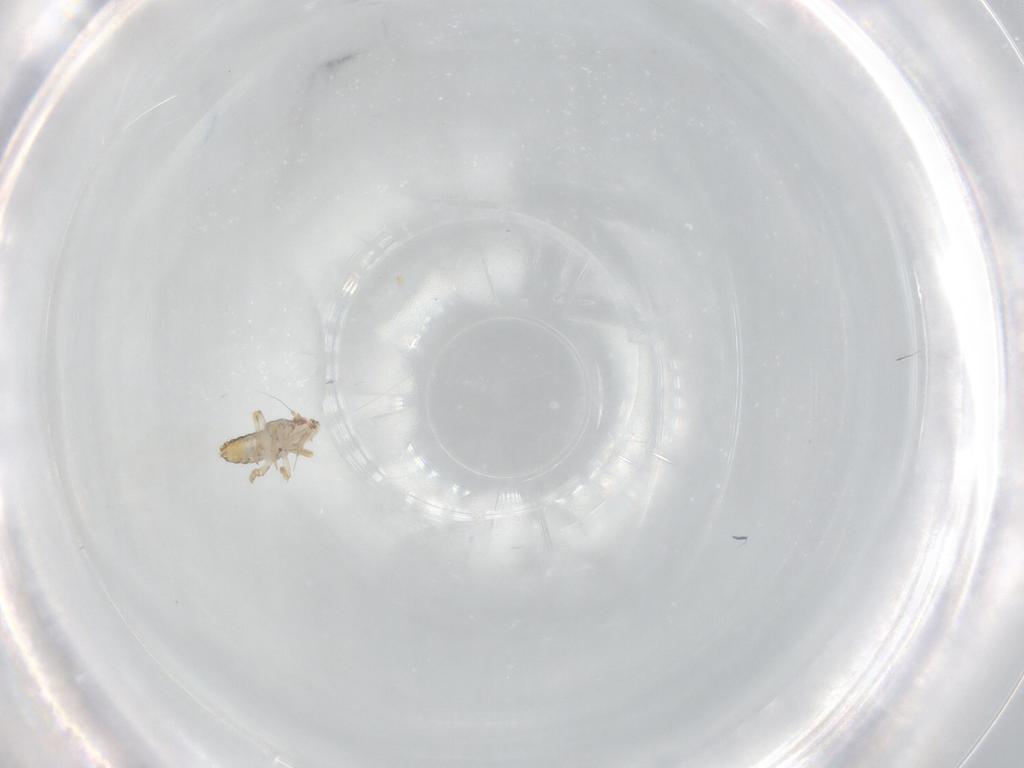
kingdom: Animalia
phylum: Arthropoda
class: Insecta
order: Hemiptera
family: Delphacidae
